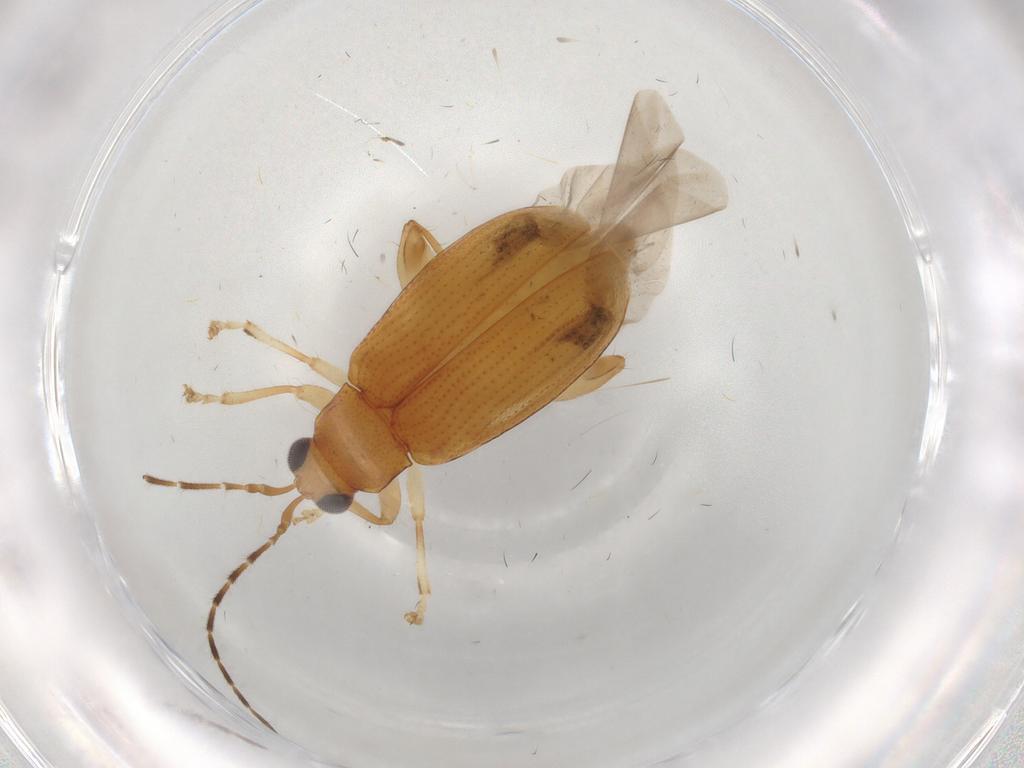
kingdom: Animalia
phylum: Arthropoda
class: Insecta
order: Coleoptera
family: Chrysomelidae
